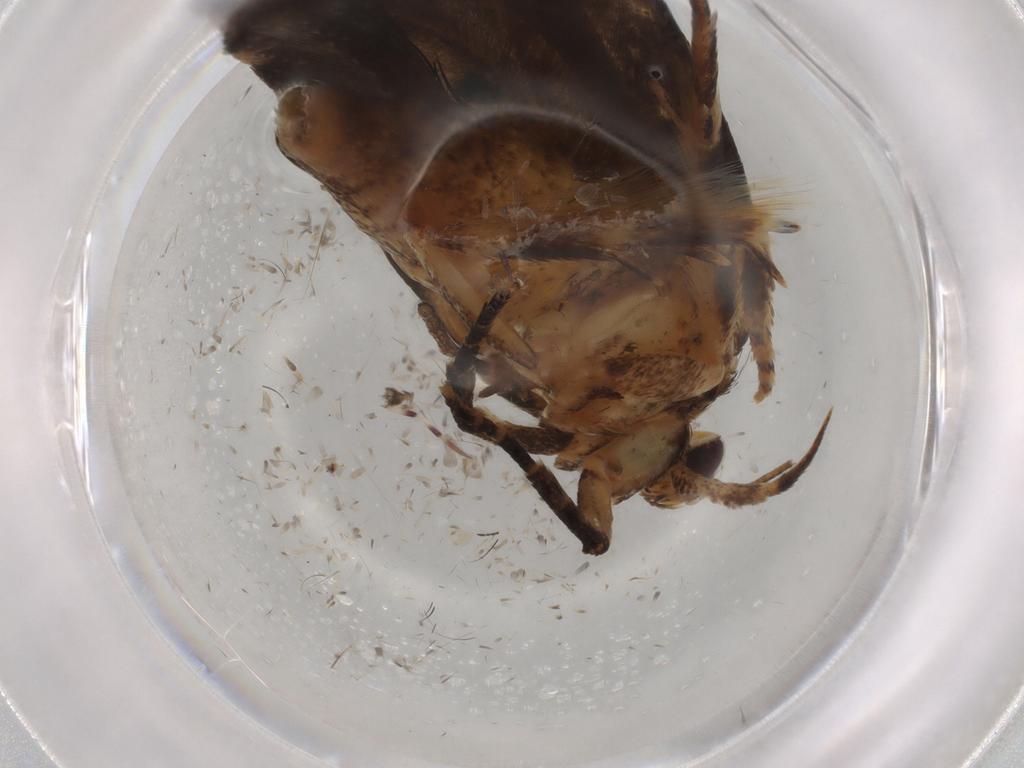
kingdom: Animalia
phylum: Arthropoda
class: Insecta
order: Lepidoptera
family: Gelechiidae
